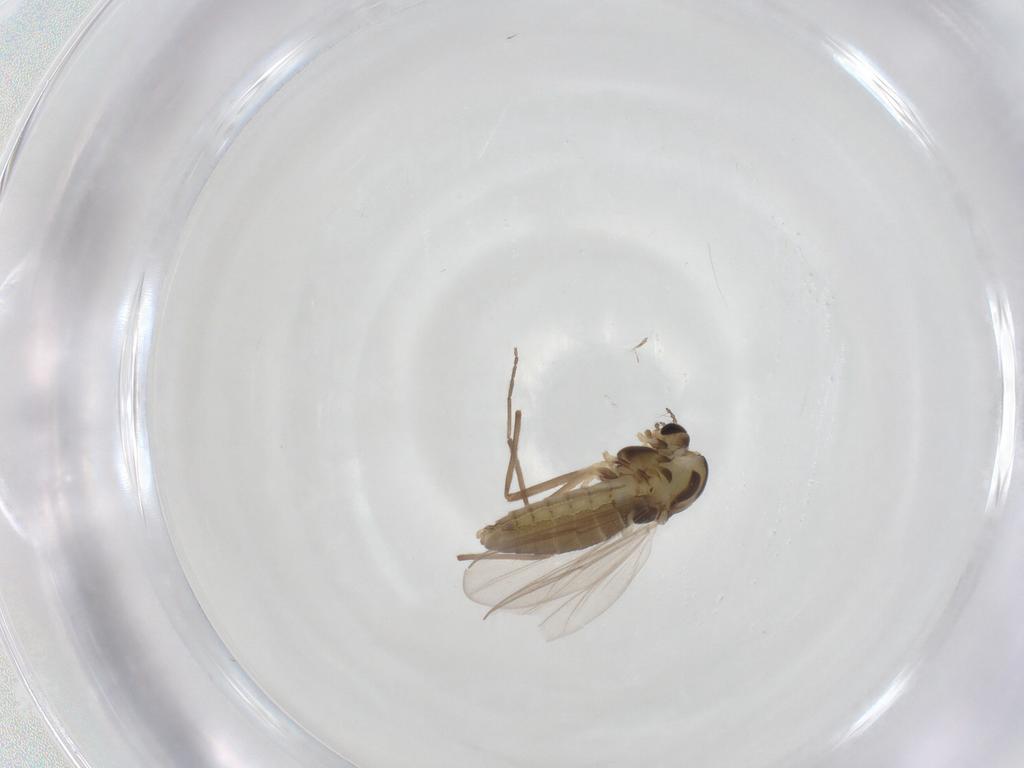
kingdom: Animalia
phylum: Arthropoda
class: Insecta
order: Diptera
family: Chironomidae
